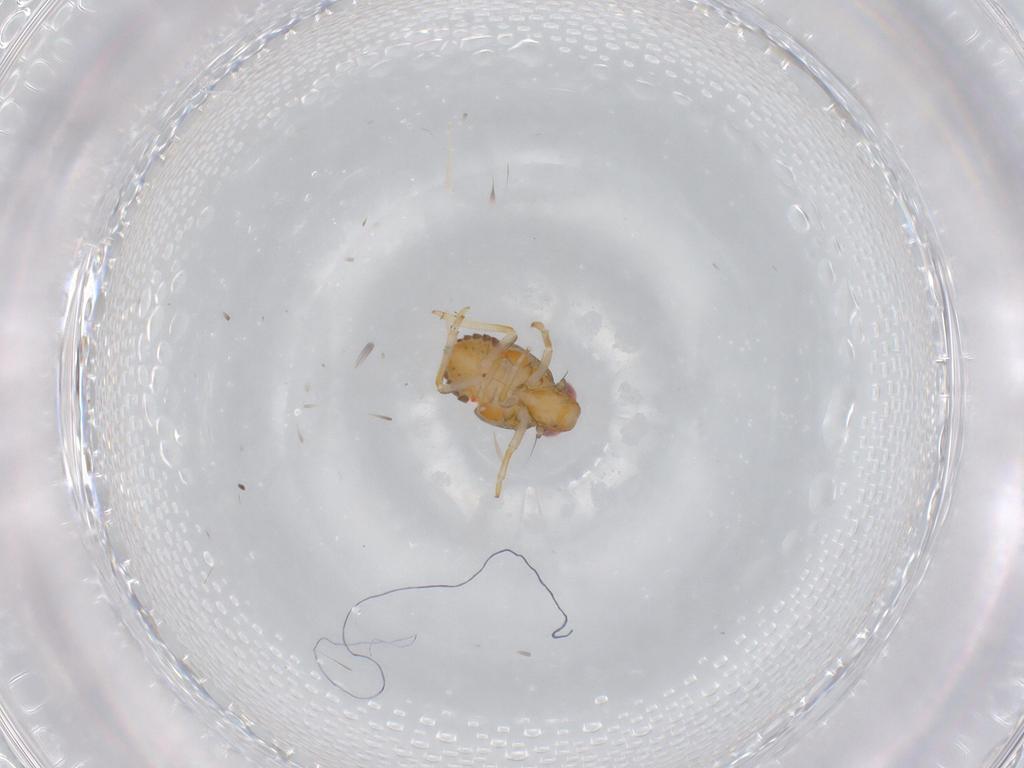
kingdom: Animalia
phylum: Arthropoda
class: Insecta
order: Hemiptera
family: Issidae
